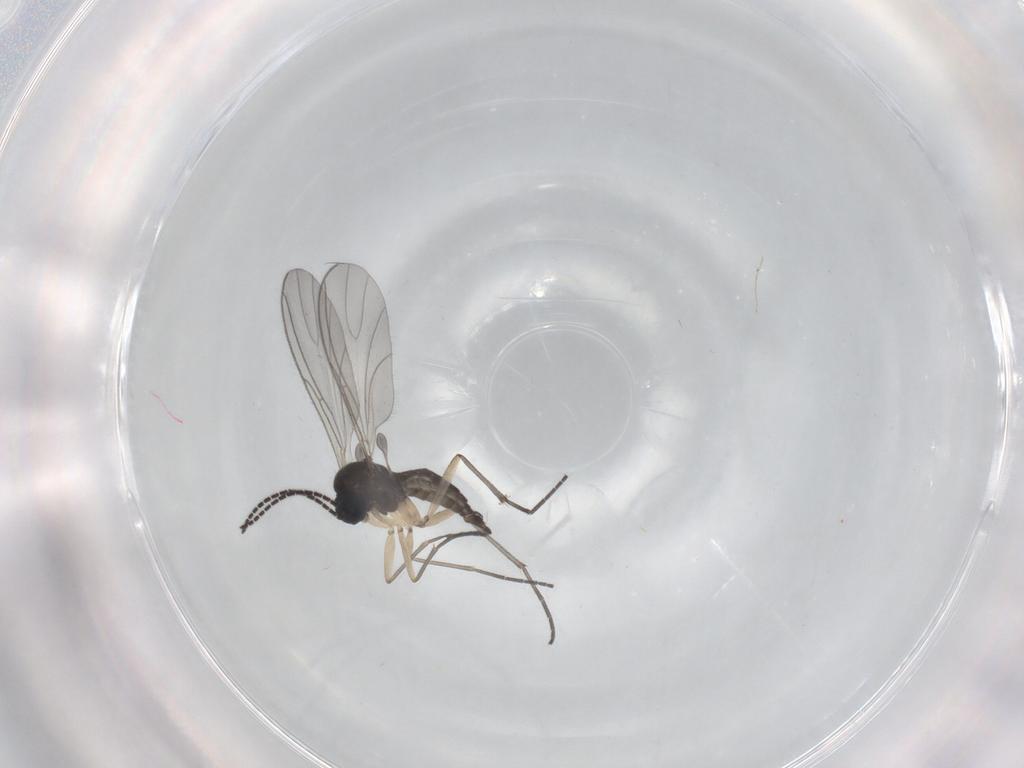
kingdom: Animalia
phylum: Arthropoda
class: Insecta
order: Diptera
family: Sciaridae
